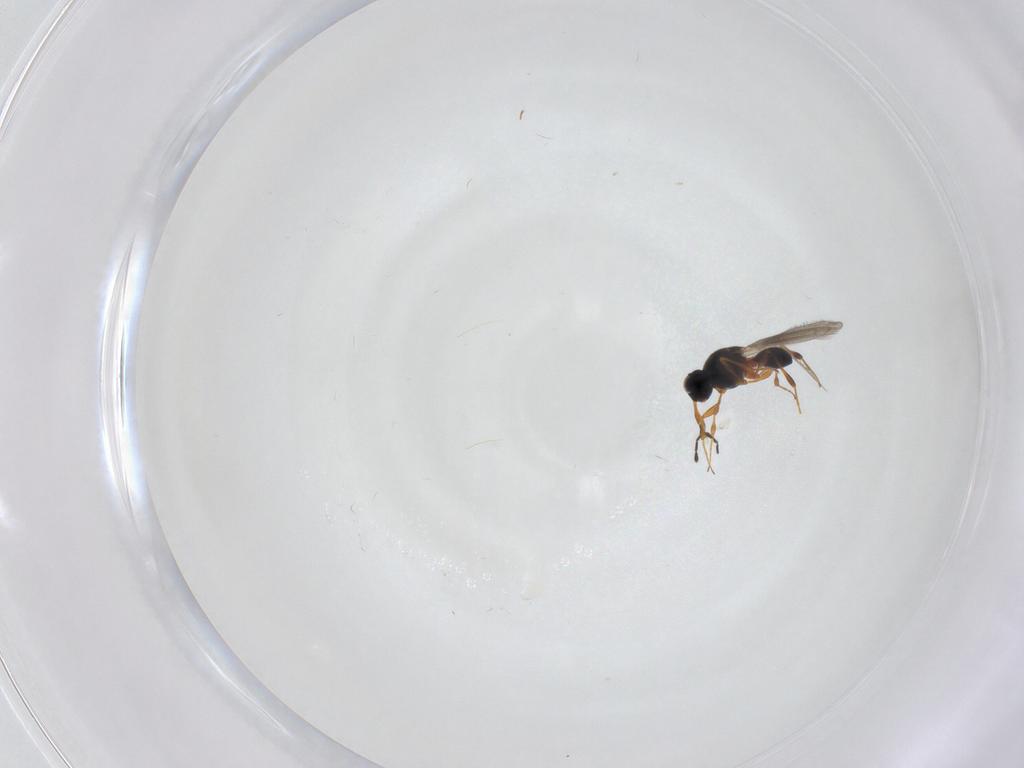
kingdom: Animalia
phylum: Arthropoda
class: Insecta
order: Hymenoptera
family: Platygastridae
